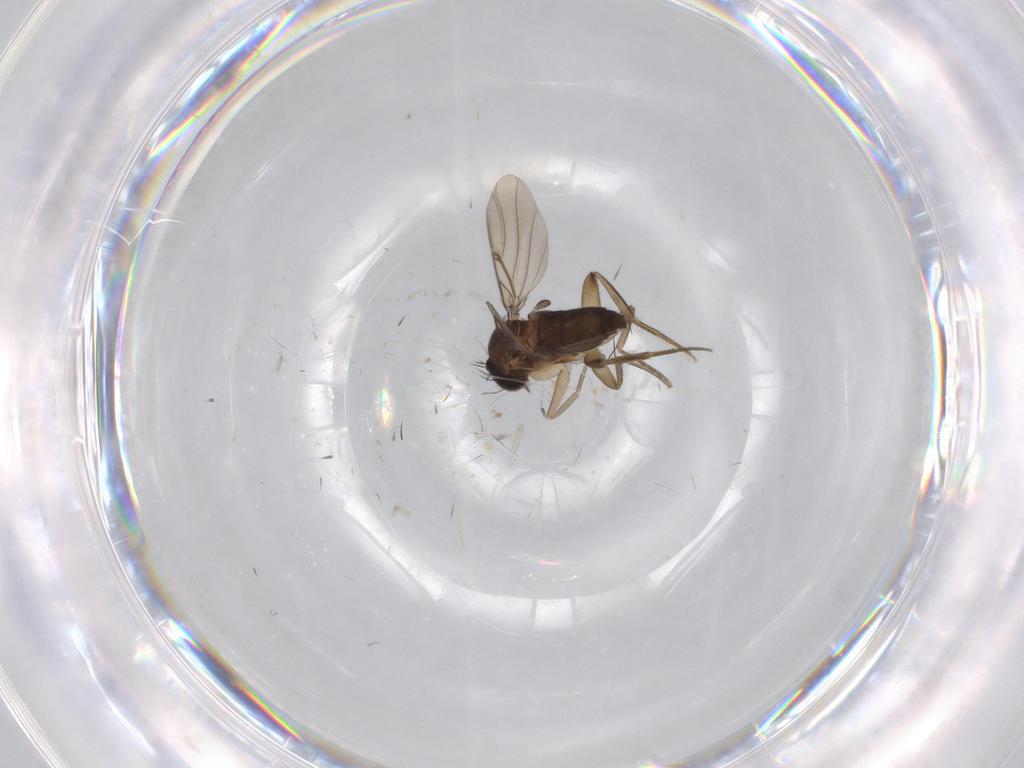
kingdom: Animalia
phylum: Arthropoda
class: Insecta
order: Diptera
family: Phoridae
